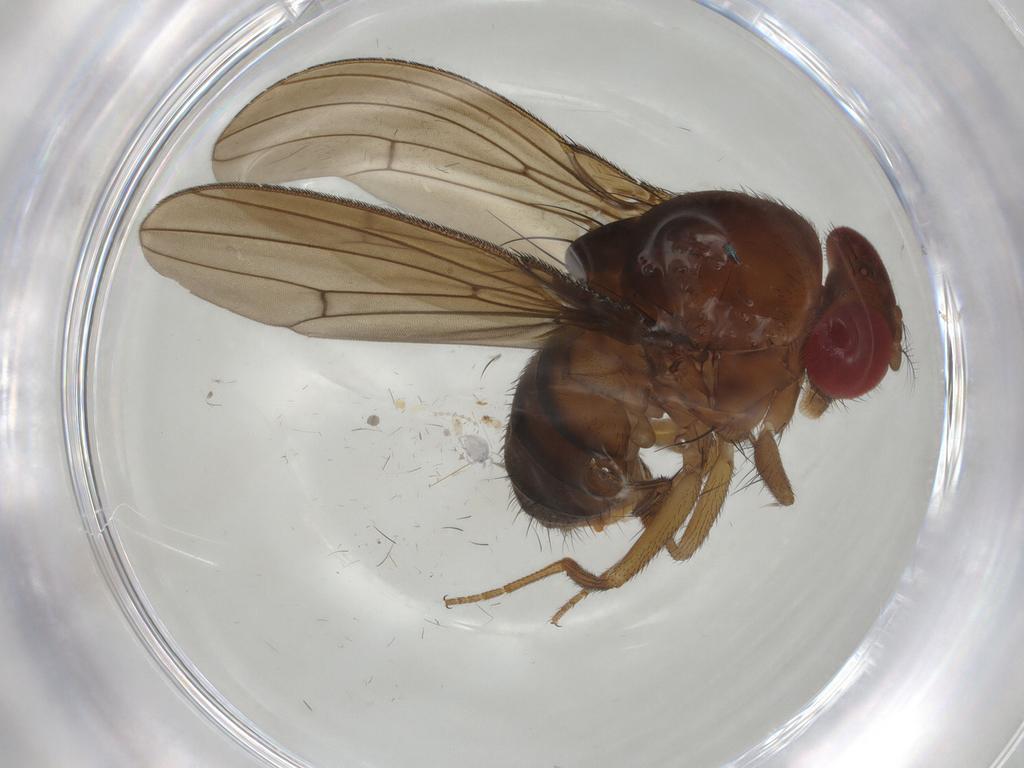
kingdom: Animalia
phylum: Arthropoda
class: Insecta
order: Diptera
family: Drosophilidae
